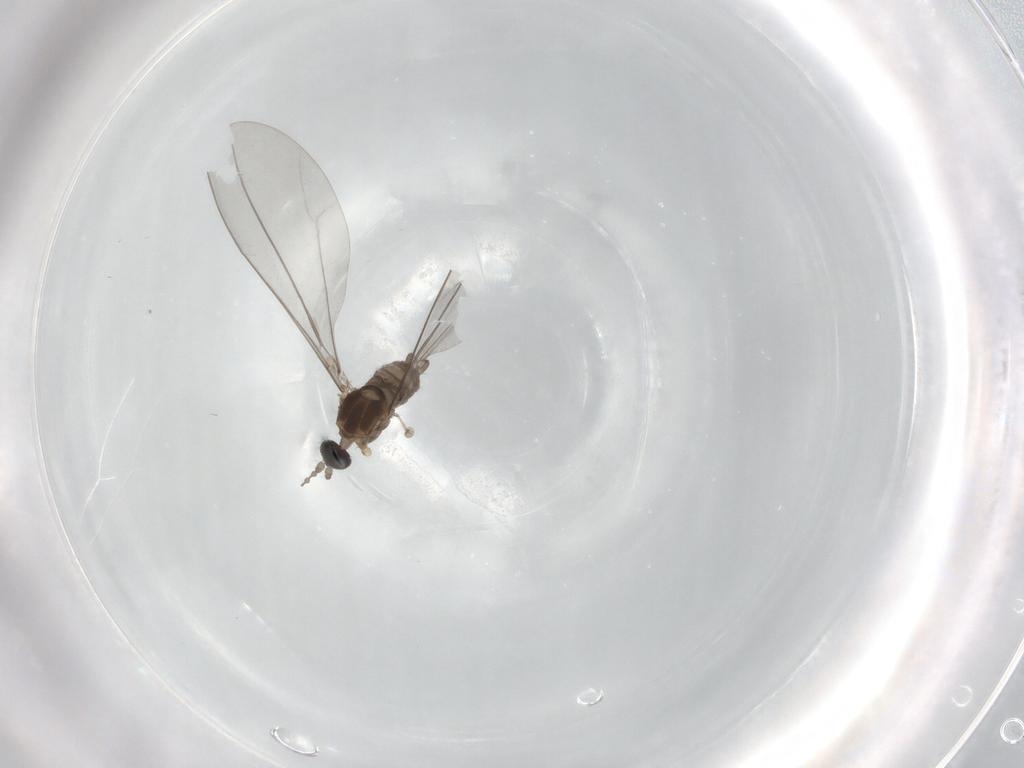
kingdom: Animalia
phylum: Arthropoda
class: Insecta
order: Diptera
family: Cecidomyiidae
